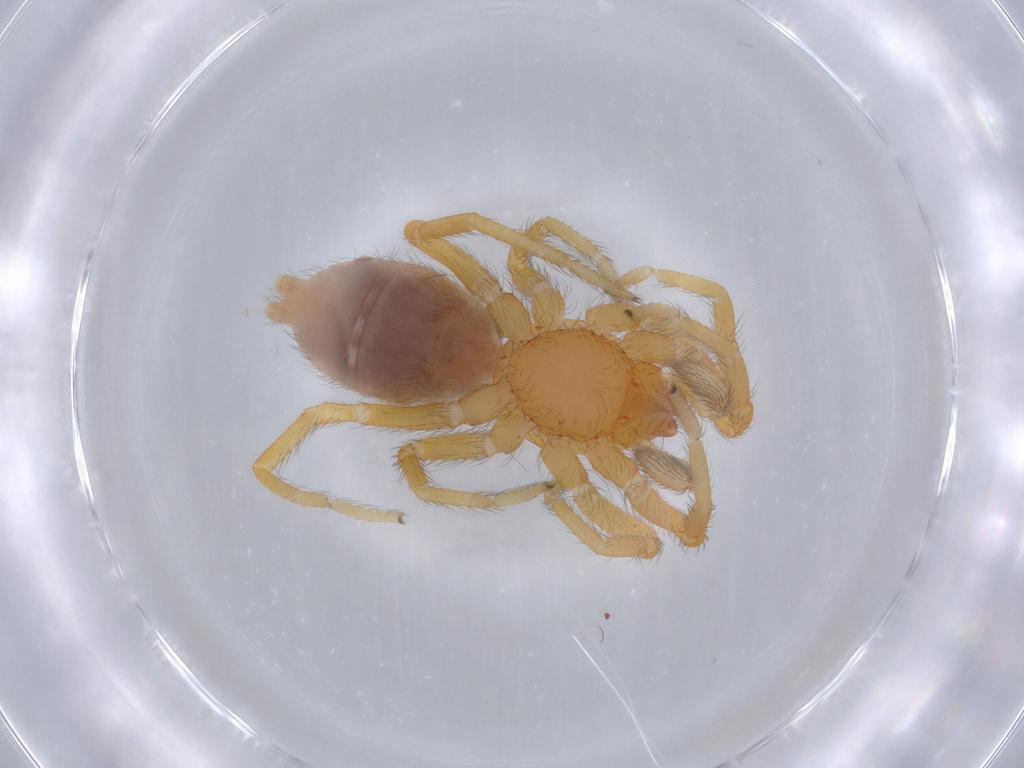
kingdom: Animalia
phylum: Arthropoda
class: Arachnida
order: Araneae
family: Caponiidae
